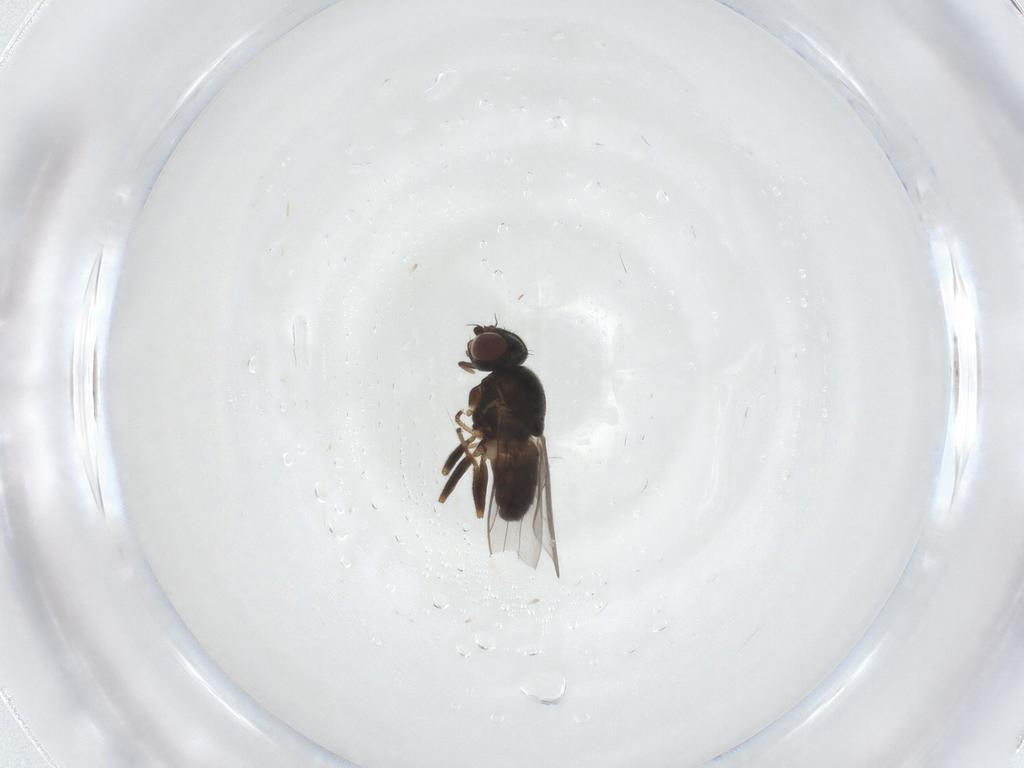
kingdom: Animalia
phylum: Arthropoda
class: Insecta
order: Diptera
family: Chloropidae
